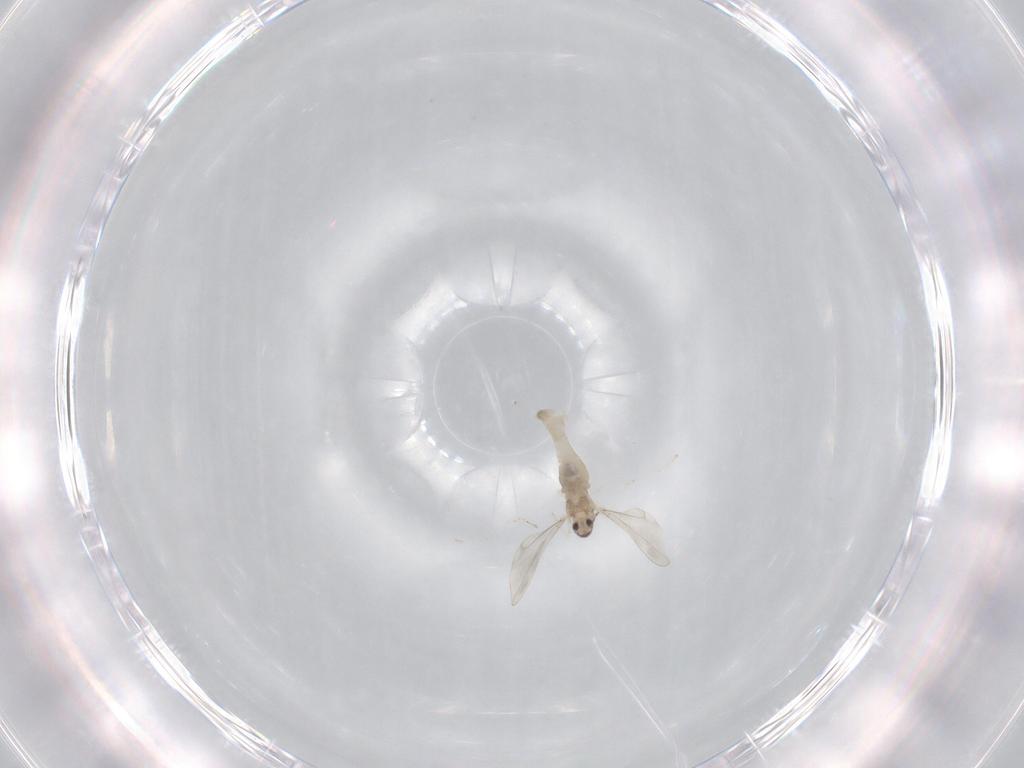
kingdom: Animalia
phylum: Arthropoda
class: Insecta
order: Diptera
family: Cecidomyiidae
